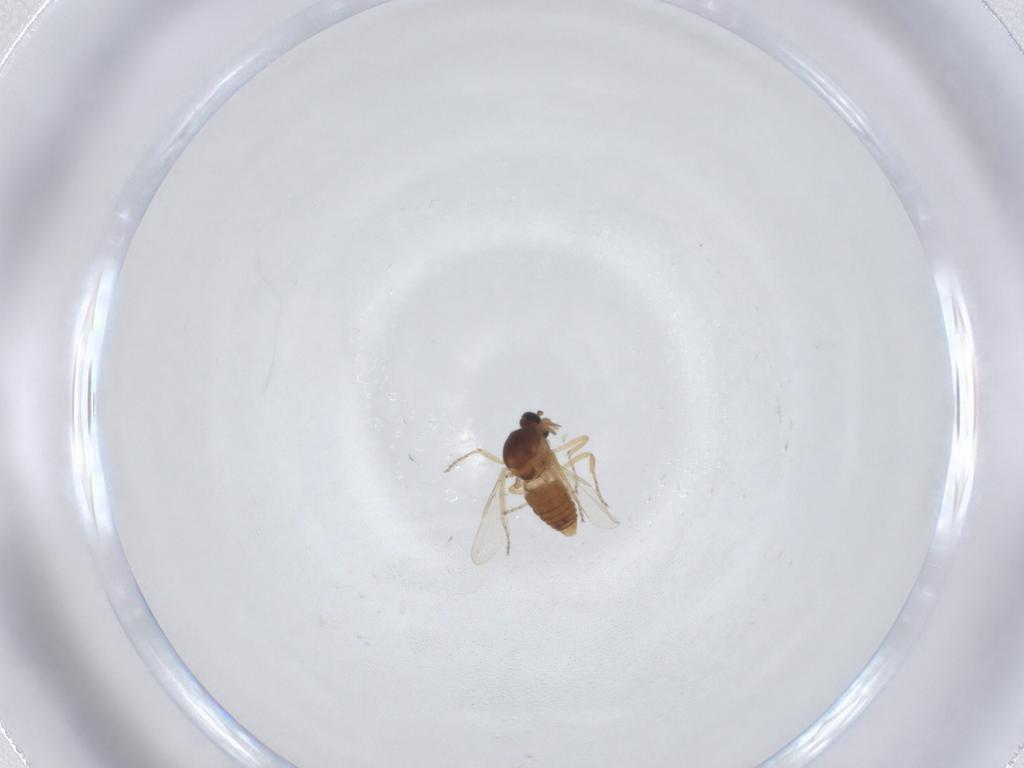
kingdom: Animalia
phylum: Arthropoda
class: Insecta
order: Diptera
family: Ceratopogonidae
